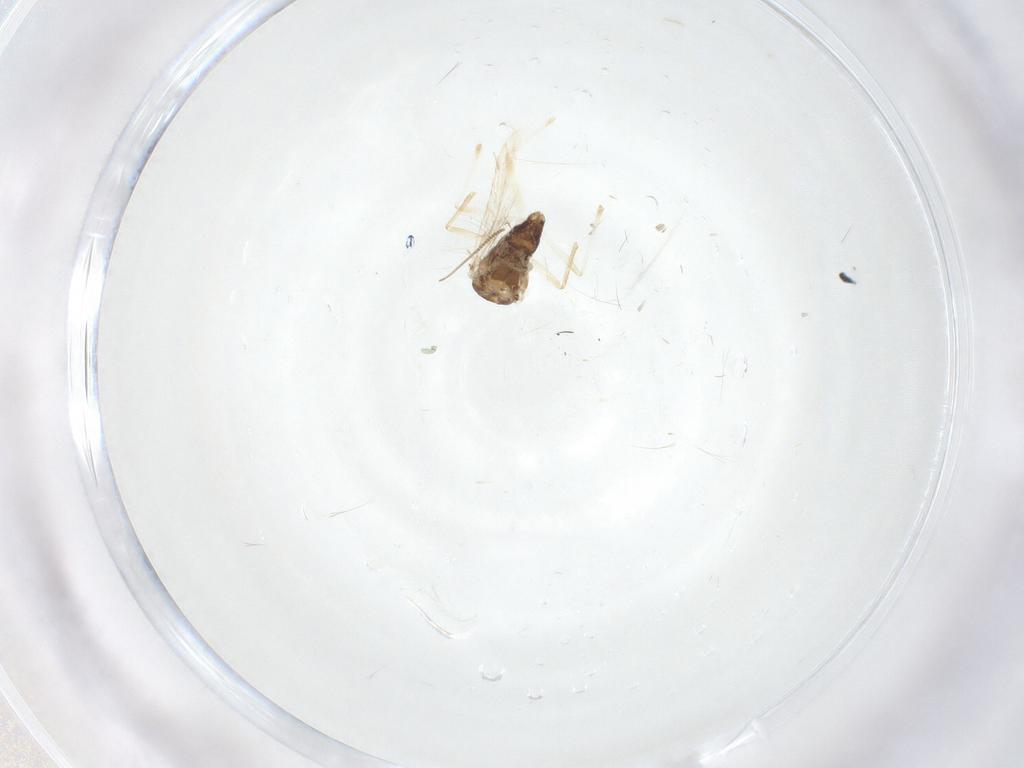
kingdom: Animalia
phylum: Arthropoda
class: Insecta
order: Diptera
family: Chironomidae
